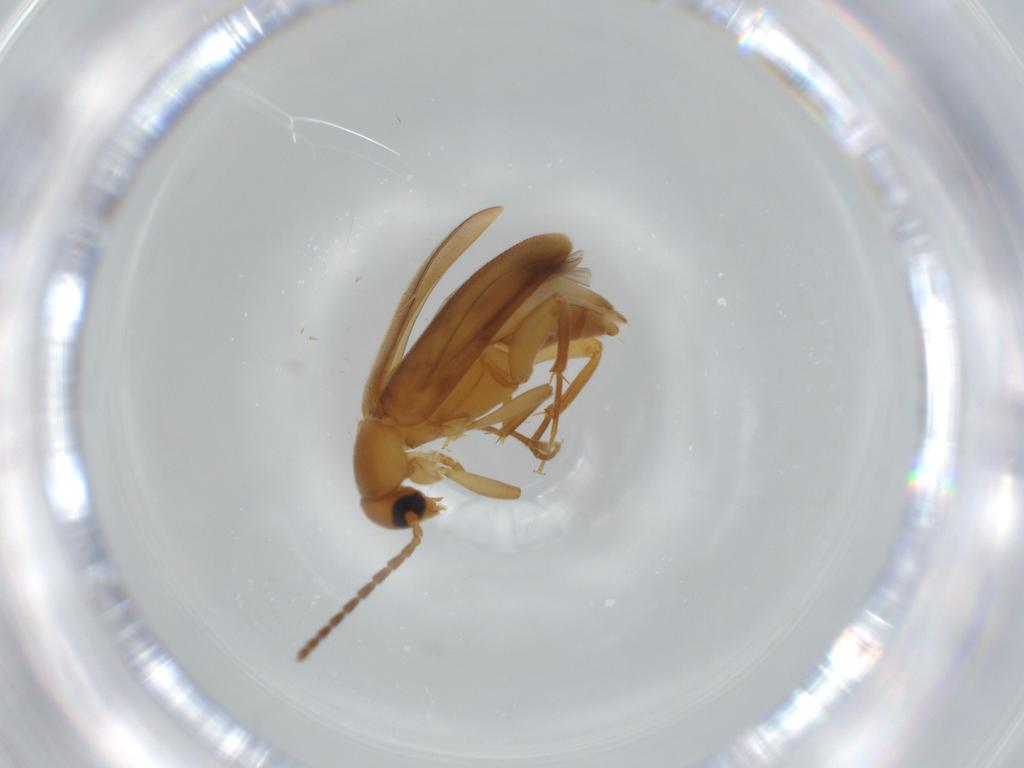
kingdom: Animalia
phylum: Arthropoda
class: Insecta
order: Coleoptera
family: Scraptiidae
